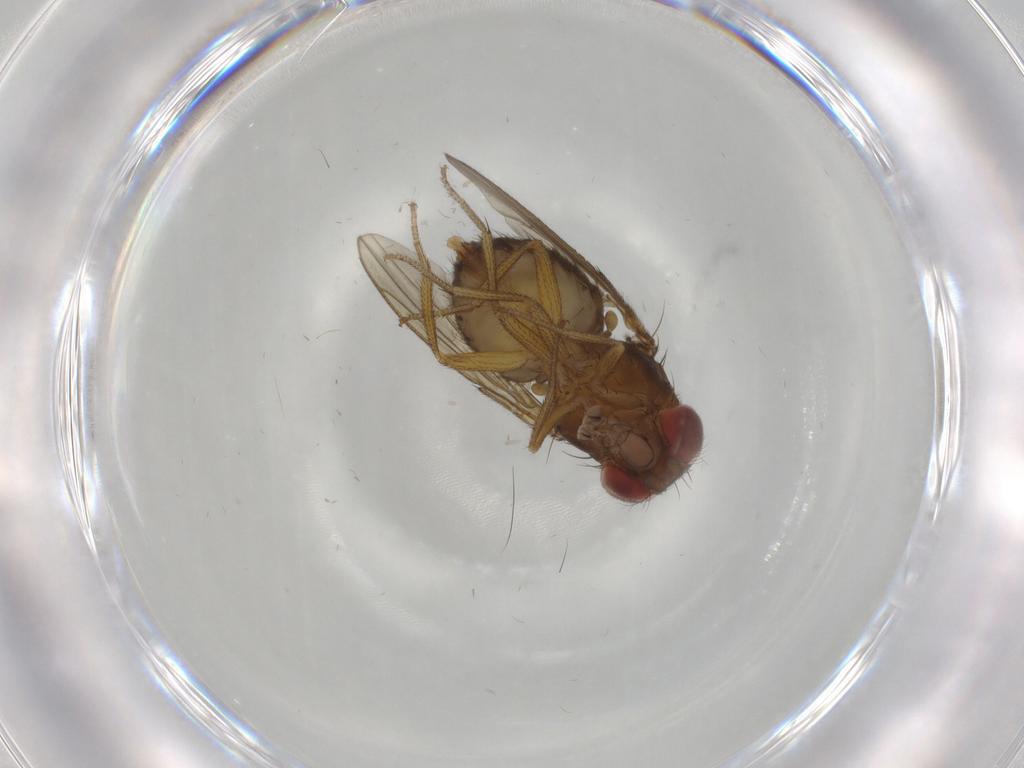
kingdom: Animalia
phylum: Arthropoda
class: Insecta
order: Diptera
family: Drosophilidae
